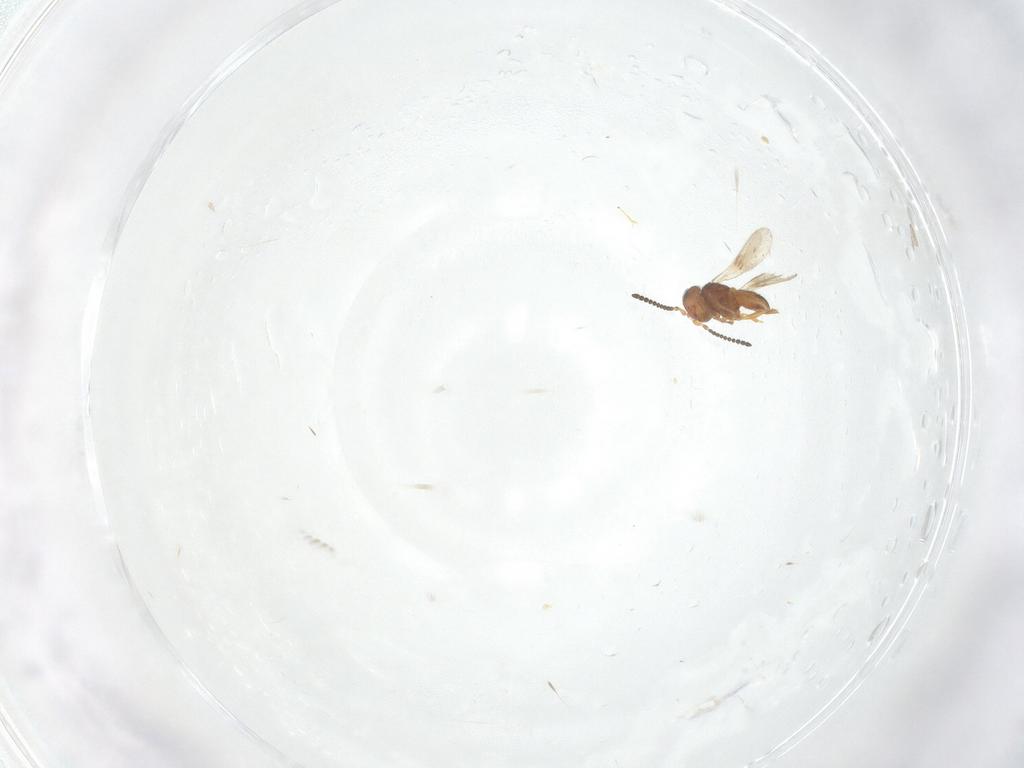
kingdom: Animalia
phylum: Arthropoda
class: Insecta
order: Hymenoptera
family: Scelionidae
